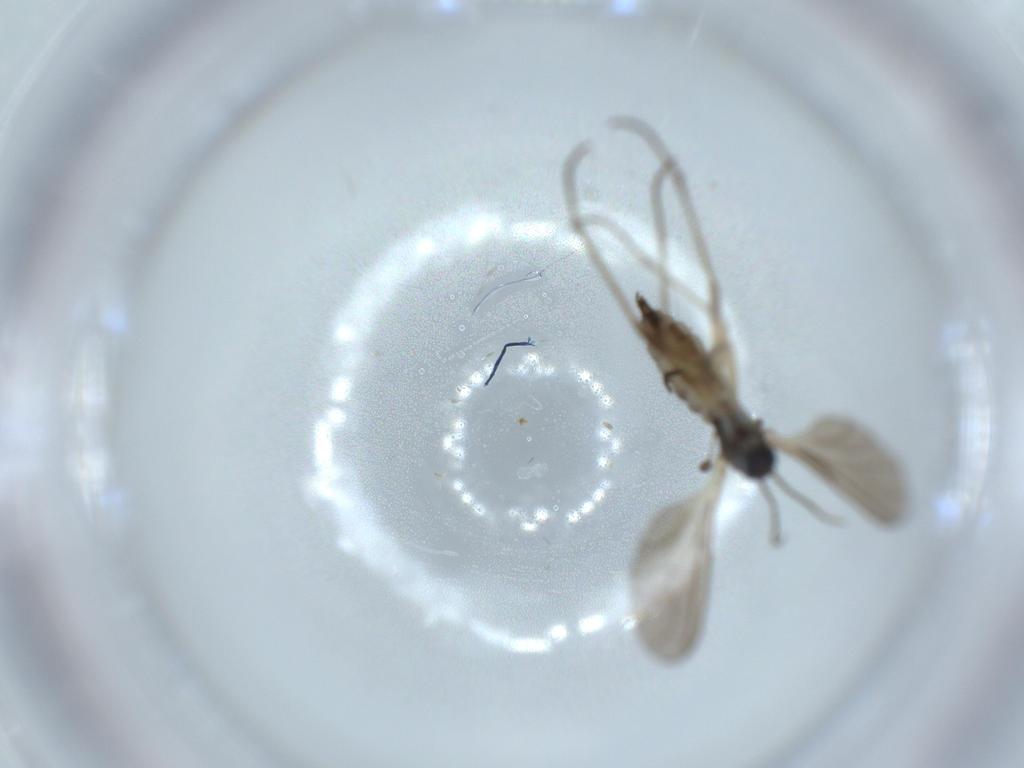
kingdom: Animalia
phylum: Arthropoda
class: Insecta
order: Diptera
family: Sciaridae
